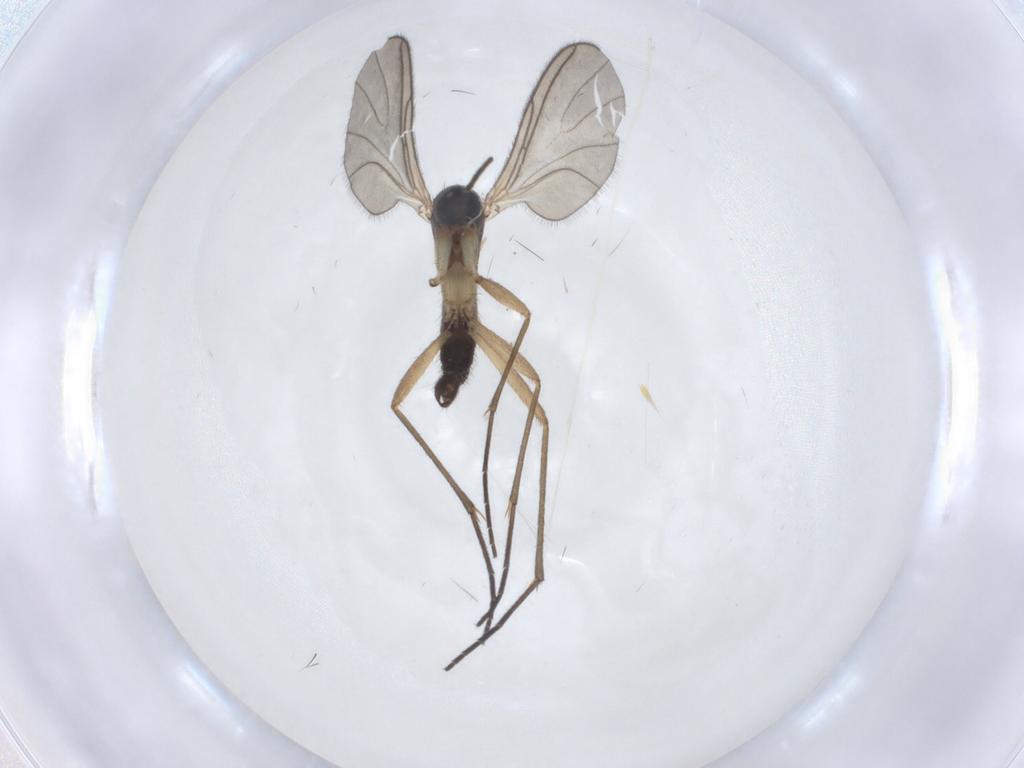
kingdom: Animalia
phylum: Arthropoda
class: Insecta
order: Diptera
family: Sciaridae
